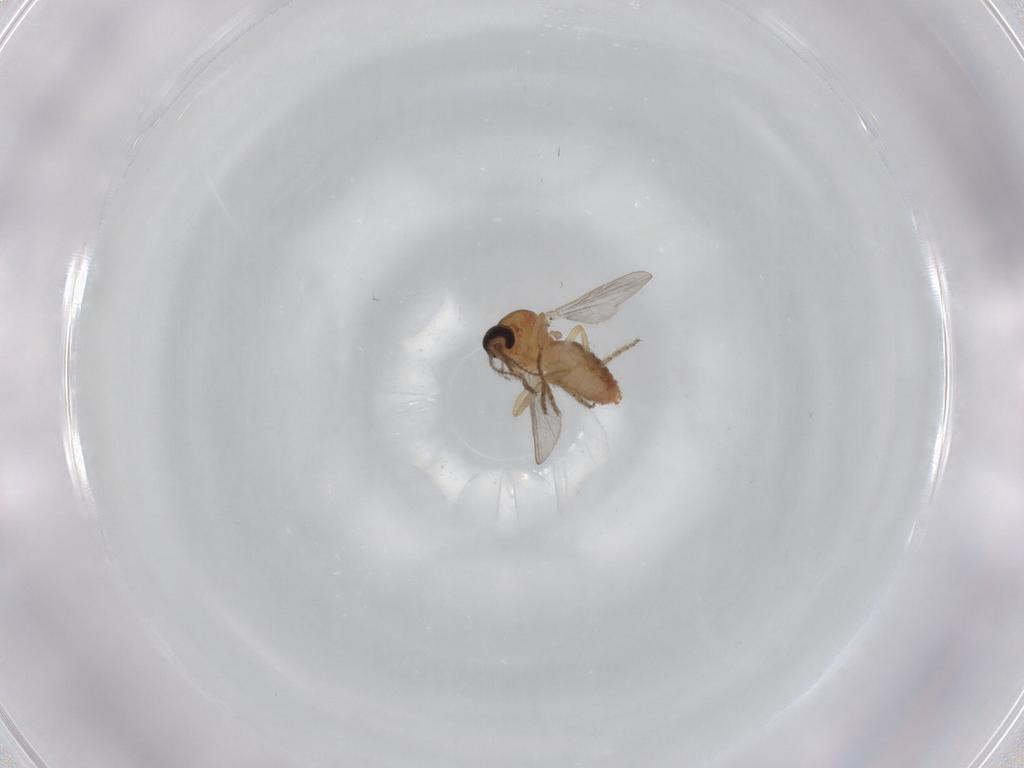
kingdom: Animalia
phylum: Arthropoda
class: Insecta
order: Diptera
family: Ceratopogonidae
